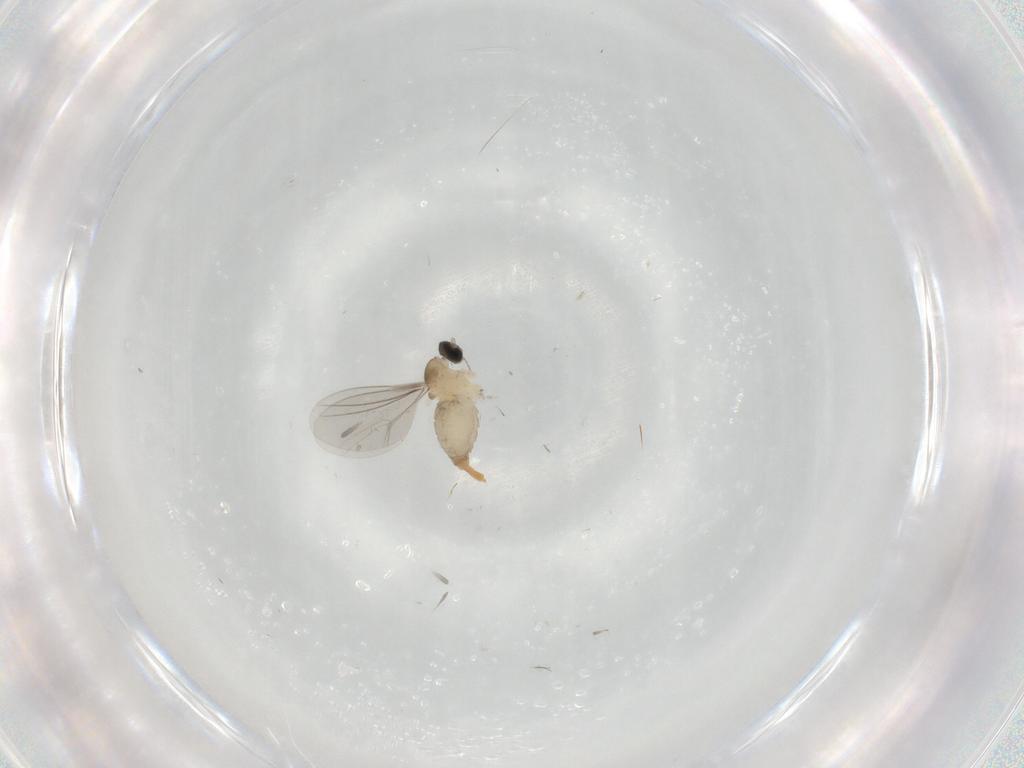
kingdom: Animalia
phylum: Arthropoda
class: Insecta
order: Diptera
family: Cecidomyiidae
